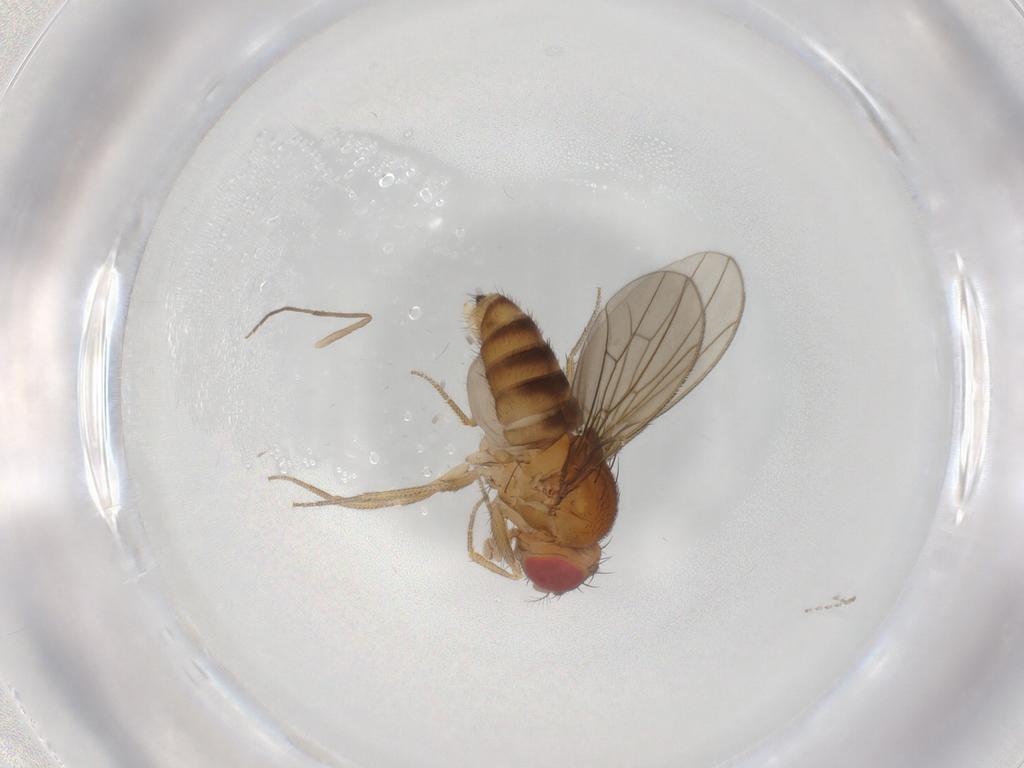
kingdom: Animalia
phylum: Arthropoda
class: Insecta
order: Diptera
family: Drosophilidae
